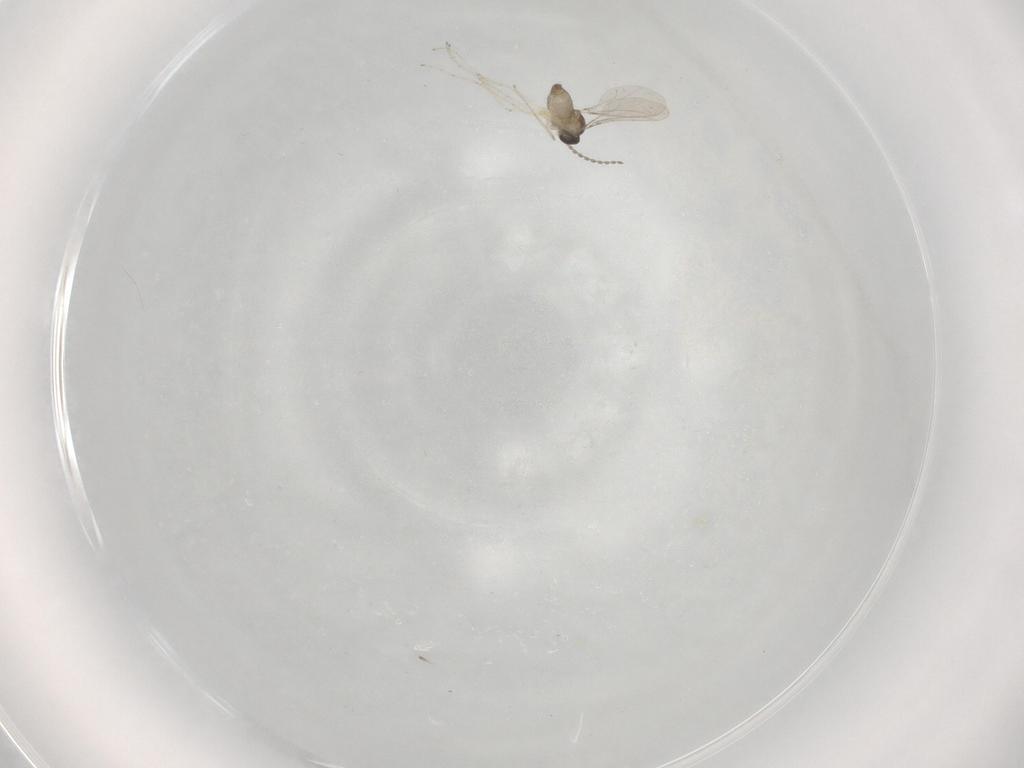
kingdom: Animalia
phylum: Arthropoda
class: Insecta
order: Diptera
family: Cecidomyiidae
